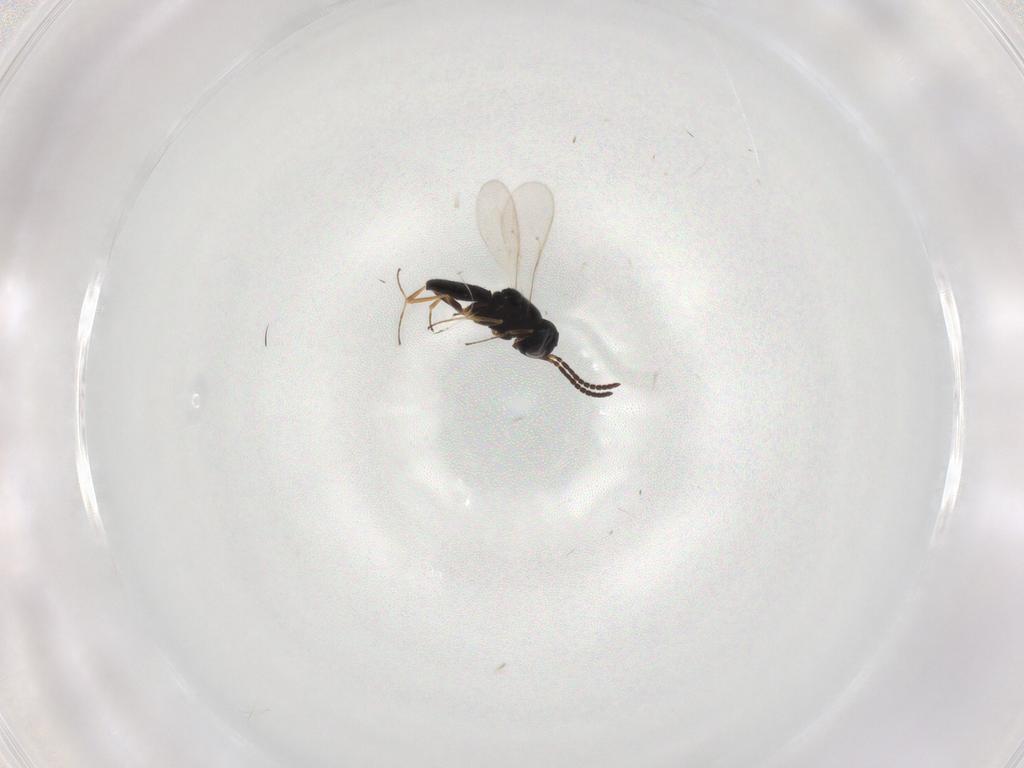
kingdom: Animalia
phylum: Arthropoda
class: Insecta
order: Hymenoptera
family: Scelionidae
